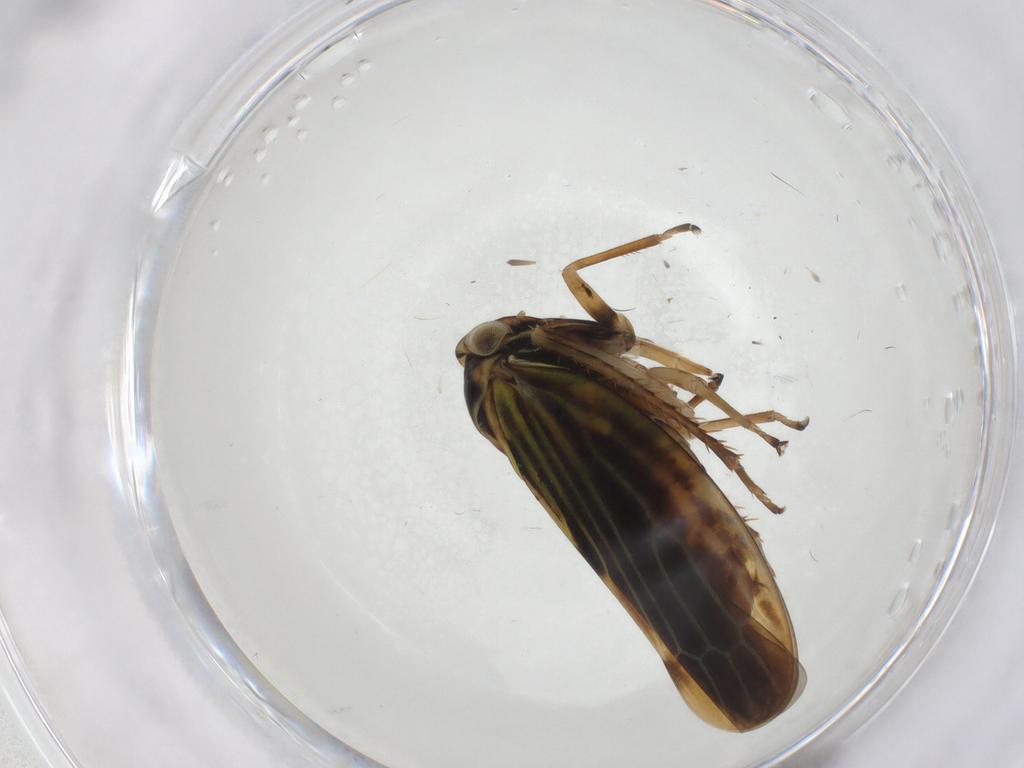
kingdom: Animalia
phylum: Arthropoda
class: Insecta
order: Hemiptera
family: Cicadellidae
